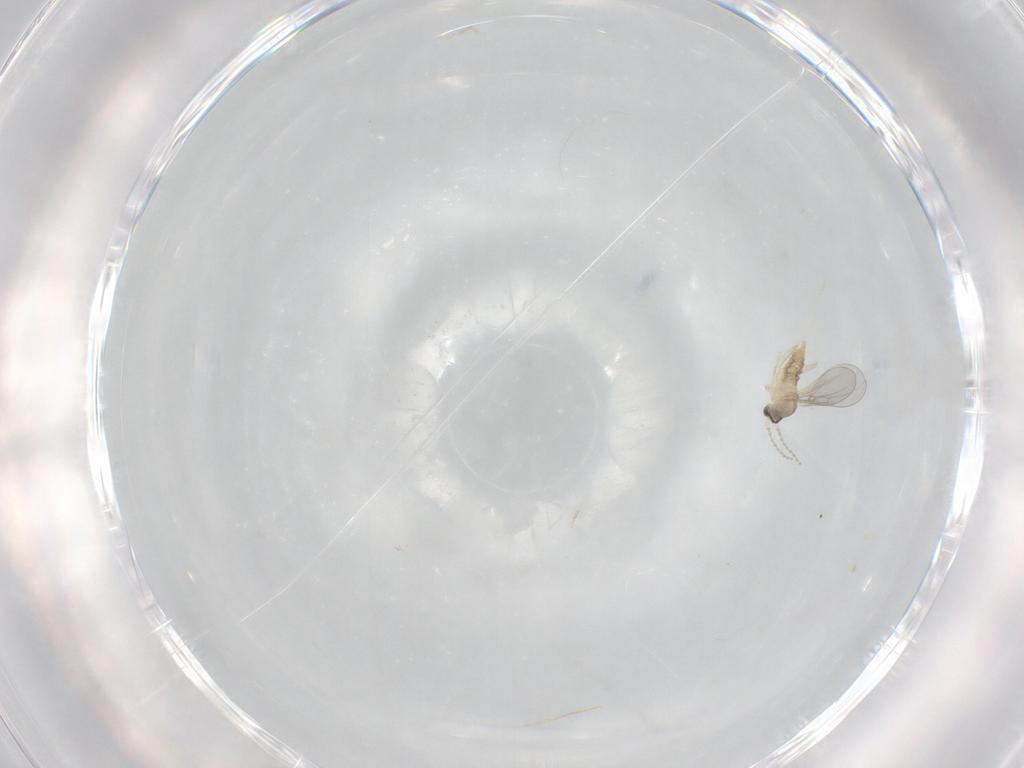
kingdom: Animalia
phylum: Arthropoda
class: Insecta
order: Diptera
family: Cecidomyiidae
